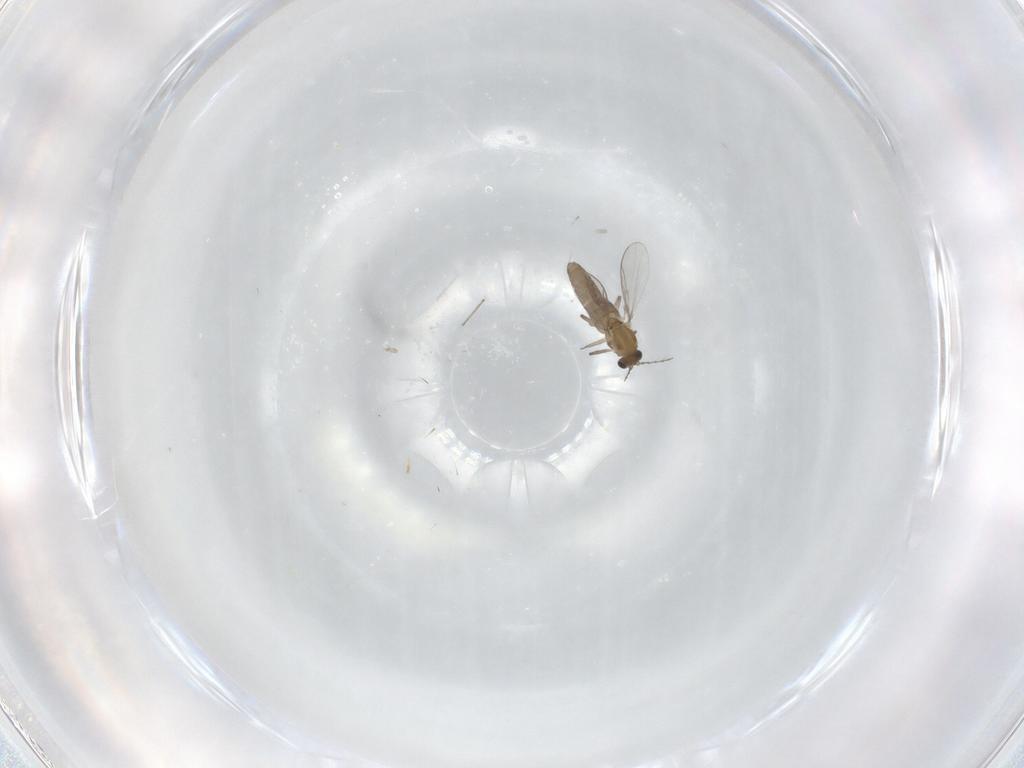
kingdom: Animalia
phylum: Arthropoda
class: Insecta
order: Diptera
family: Chironomidae
